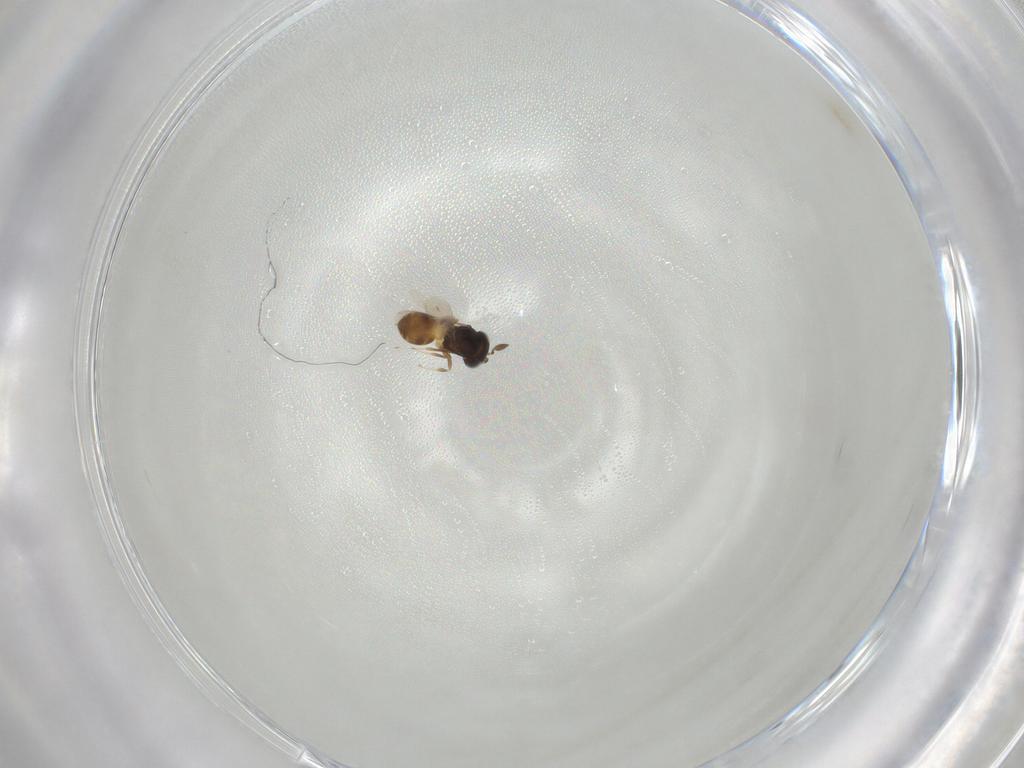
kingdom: Animalia
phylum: Arthropoda
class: Insecta
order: Hymenoptera
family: Scelionidae
